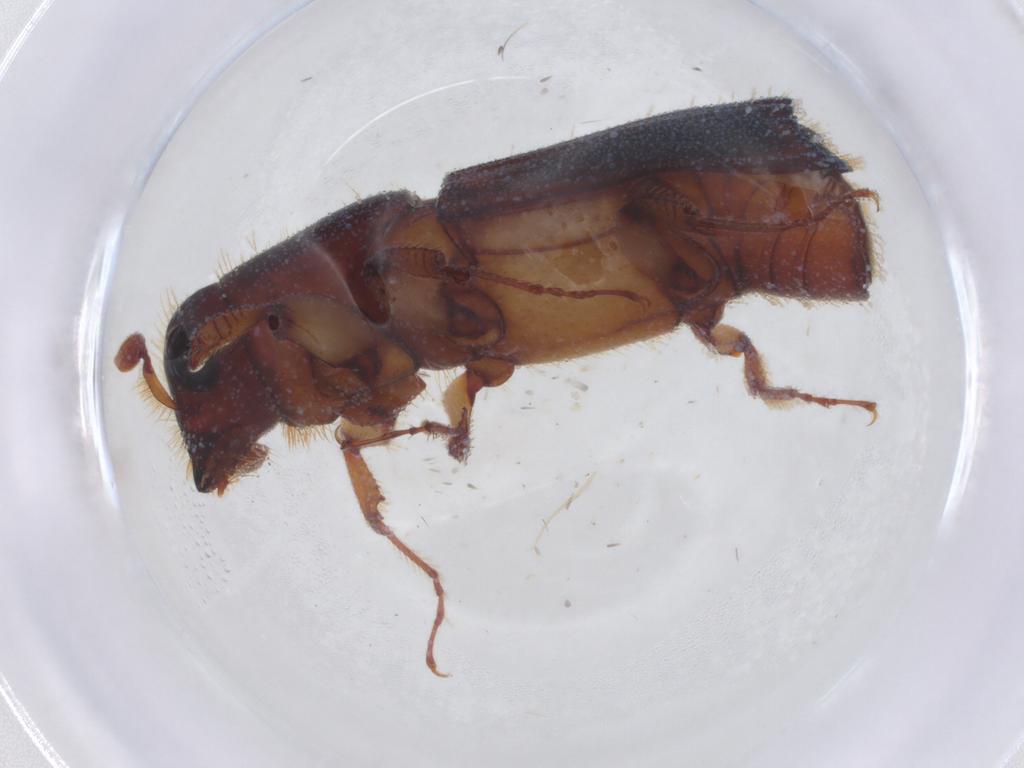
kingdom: Animalia
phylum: Arthropoda
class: Insecta
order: Coleoptera
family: Curculionidae
